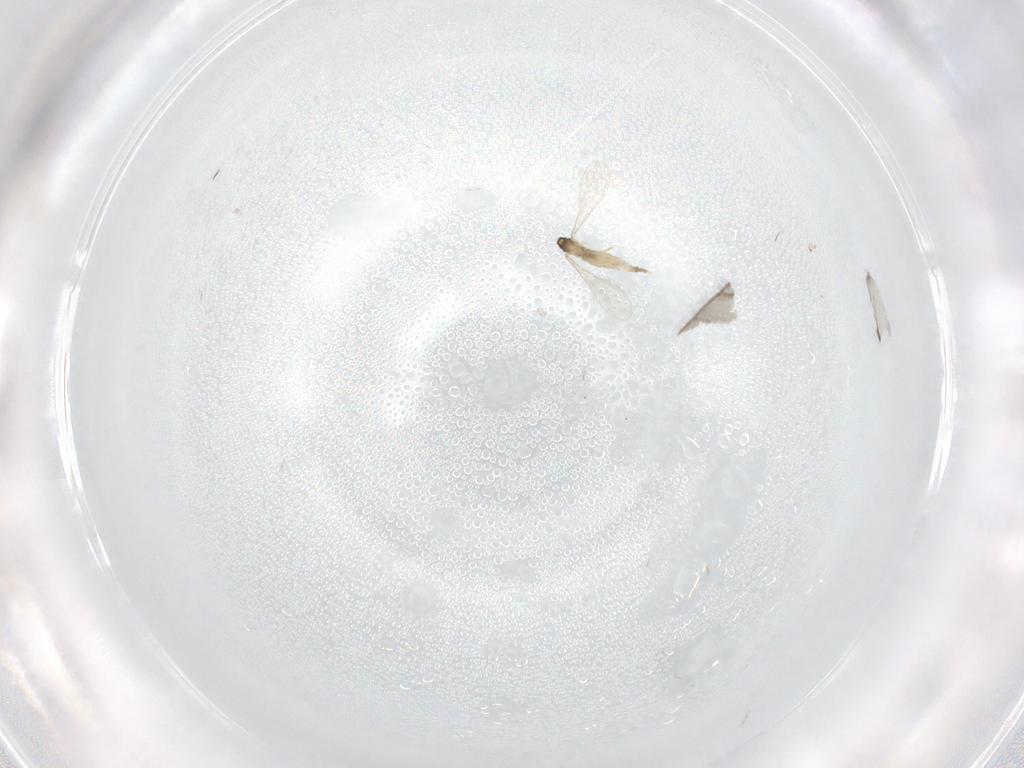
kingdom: Animalia
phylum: Arthropoda
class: Insecta
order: Diptera
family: Cecidomyiidae
